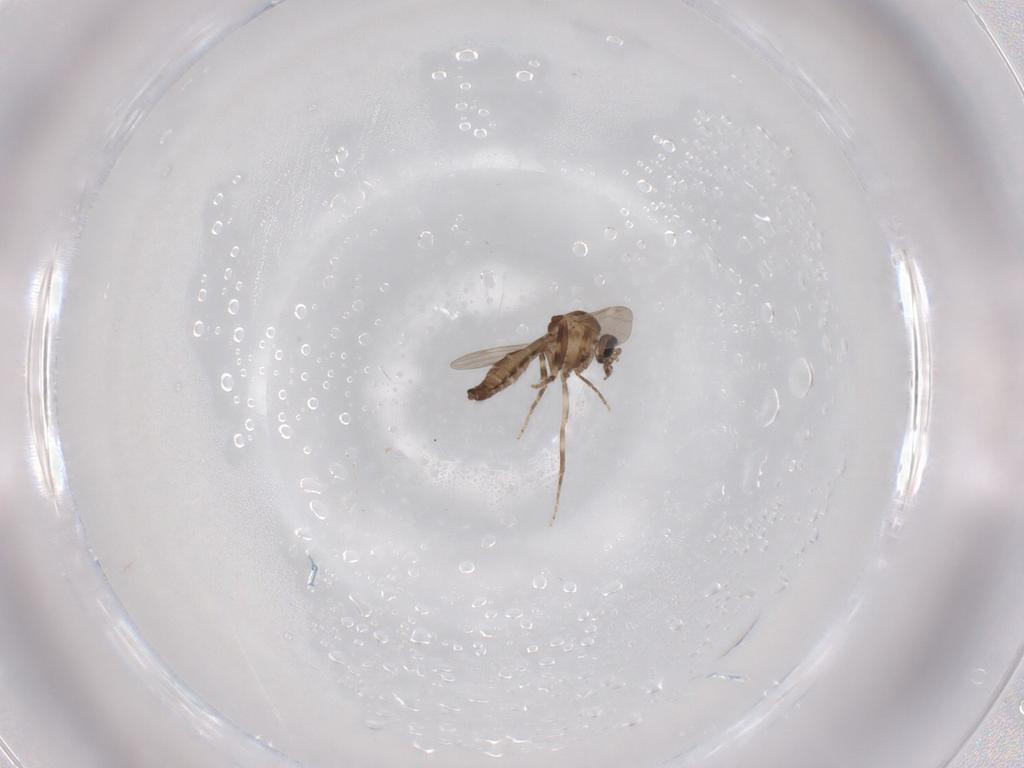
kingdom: Animalia
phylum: Arthropoda
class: Insecta
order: Diptera
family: Ceratopogonidae
